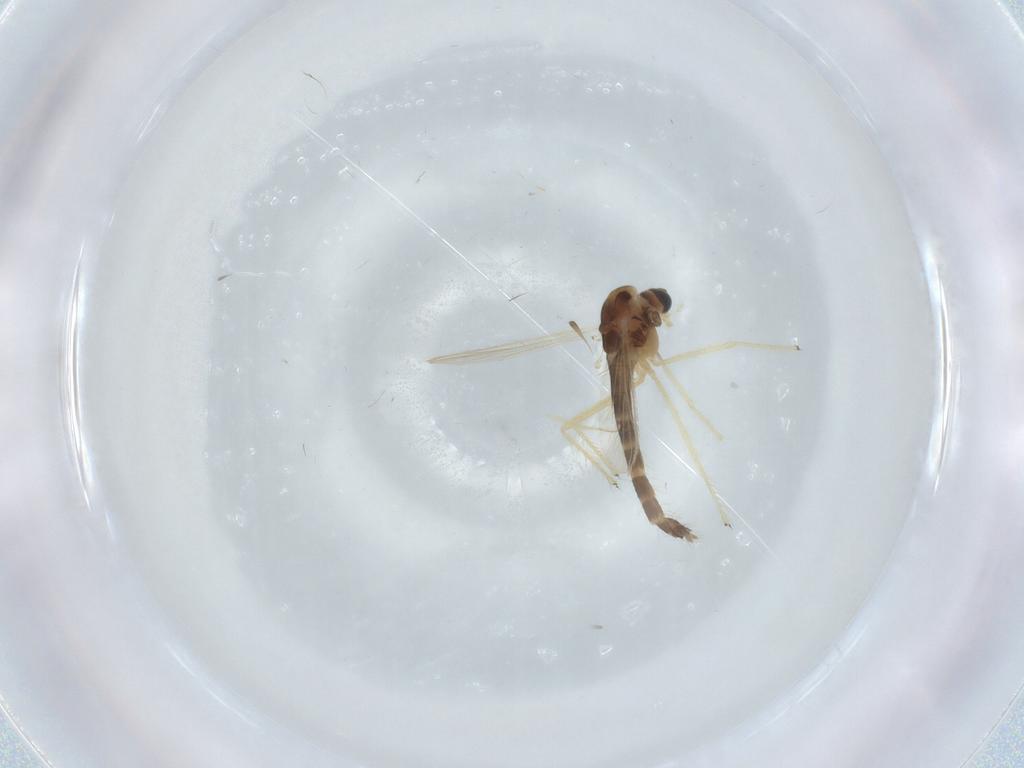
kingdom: Animalia
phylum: Arthropoda
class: Insecta
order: Diptera
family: Chironomidae
